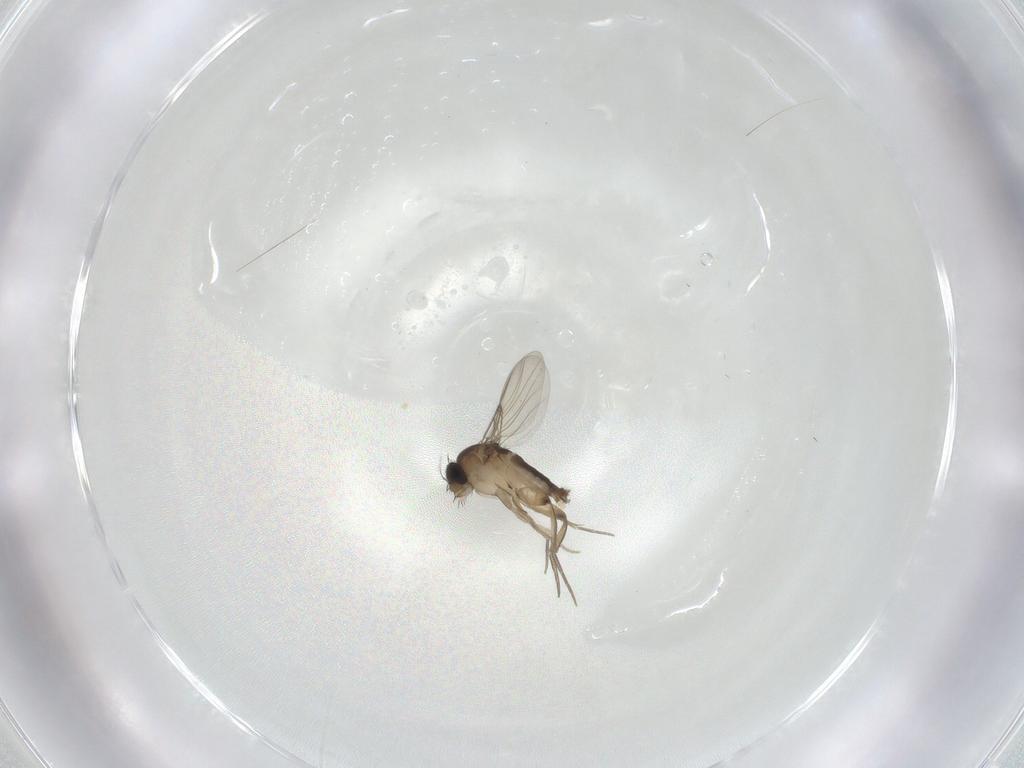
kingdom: Animalia
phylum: Arthropoda
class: Insecta
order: Diptera
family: Phoridae
